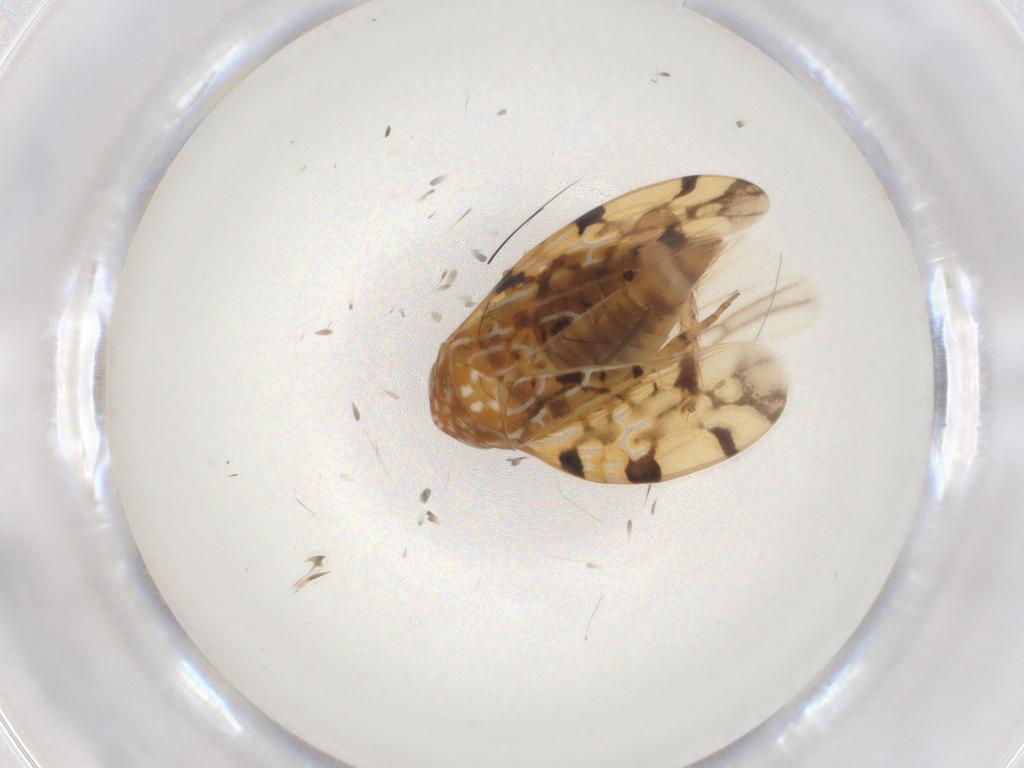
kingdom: Animalia
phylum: Arthropoda
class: Insecta
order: Hemiptera
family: Cicadellidae
